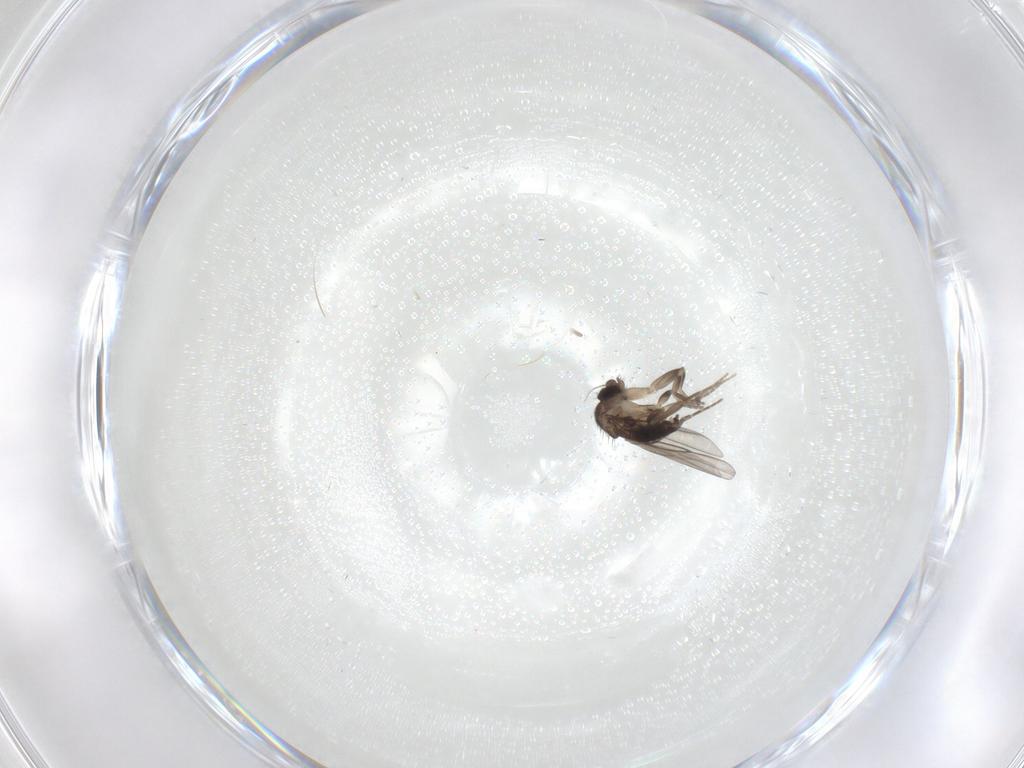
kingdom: Animalia
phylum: Arthropoda
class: Insecta
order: Diptera
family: Phoridae
